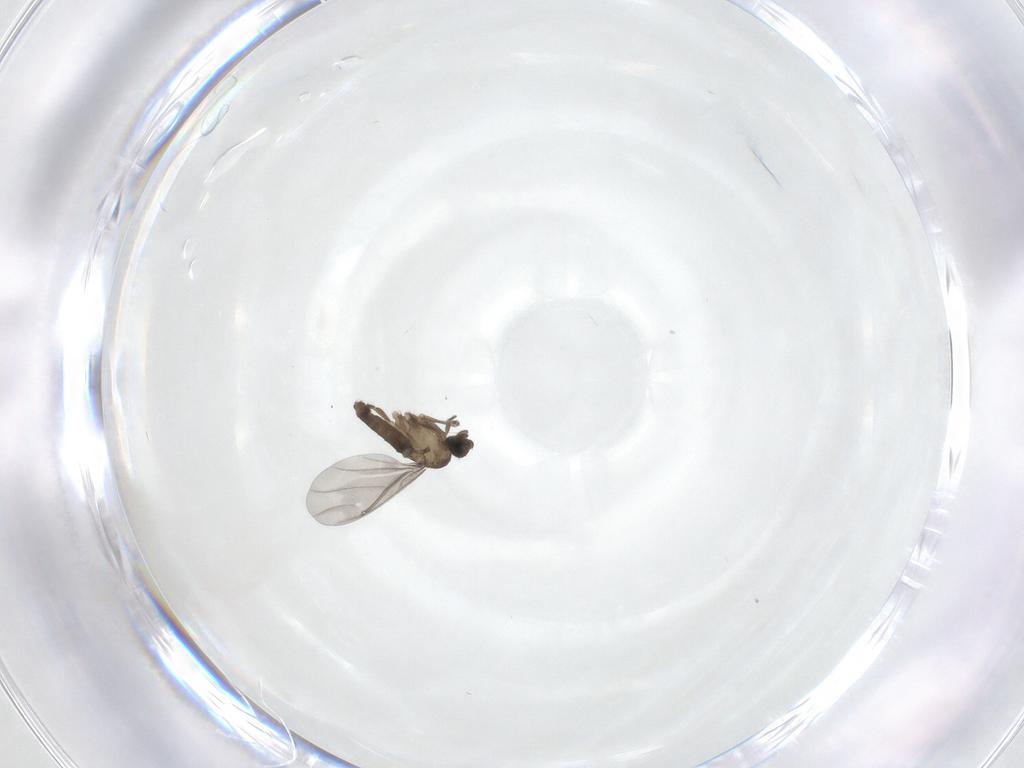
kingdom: Animalia
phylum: Arthropoda
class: Insecta
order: Diptera
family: Phoridae
